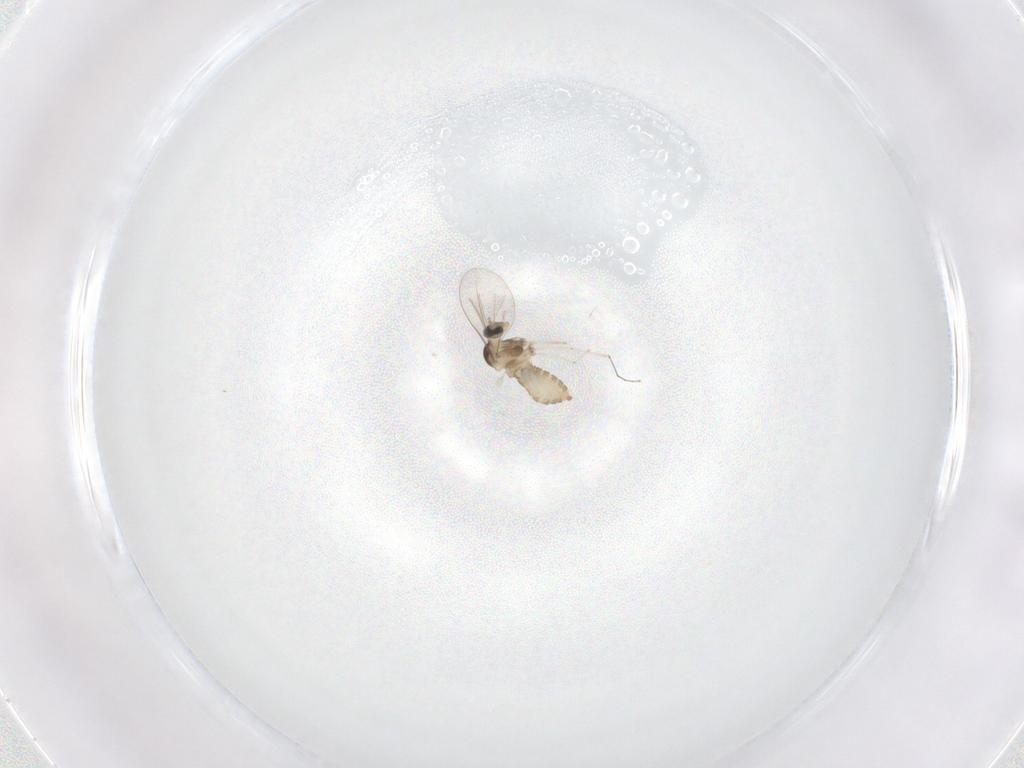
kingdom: Animalia
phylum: Arthropoda
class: Insecta
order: Diptera
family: Cecidomyiidae
